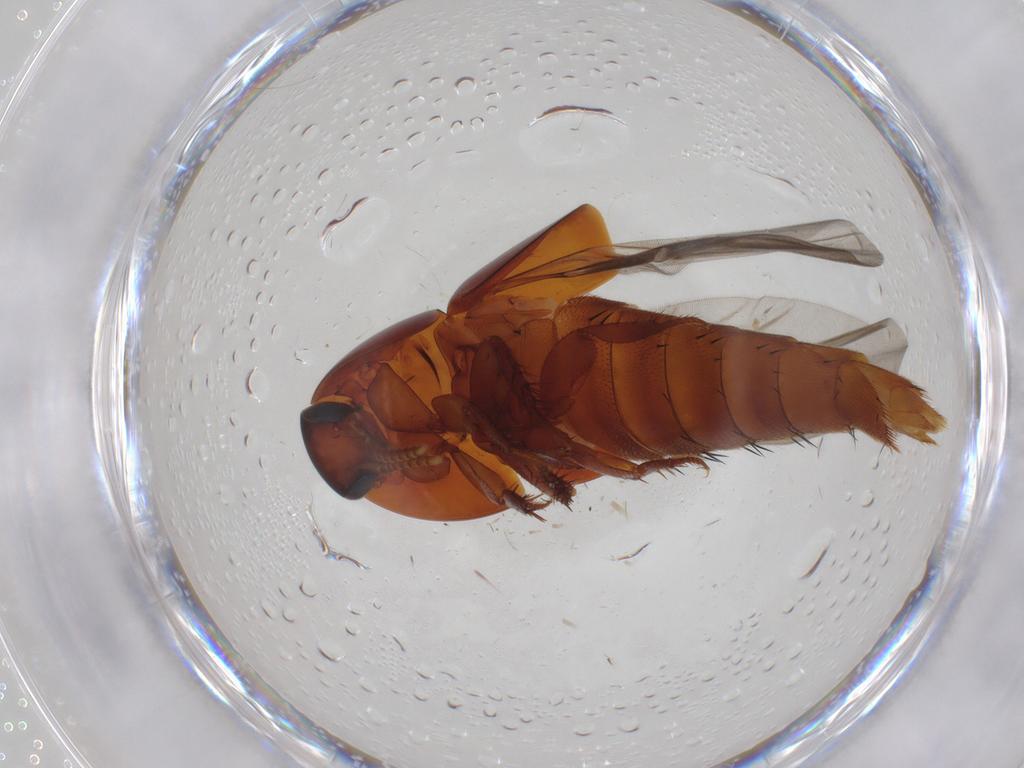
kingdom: Animalia
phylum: Arthropoda
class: Insecta
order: Coleoptera
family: Staphylinidae
